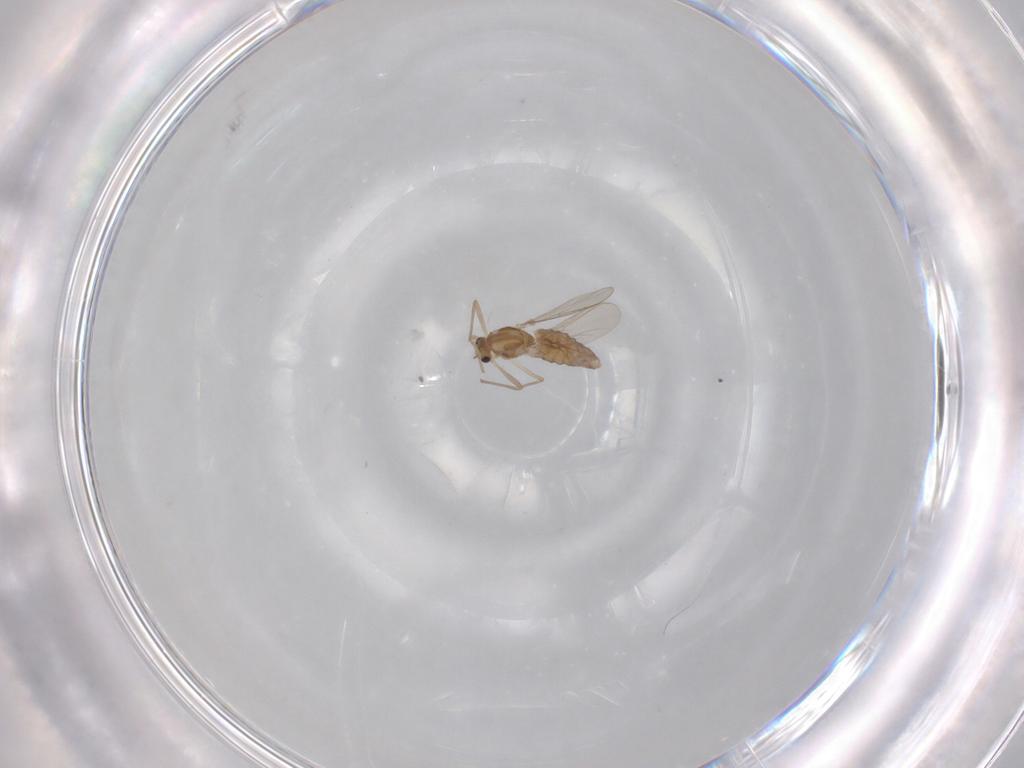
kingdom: Animalia
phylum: Arthropoda
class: Insecta
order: Diptera
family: Chironomidae
